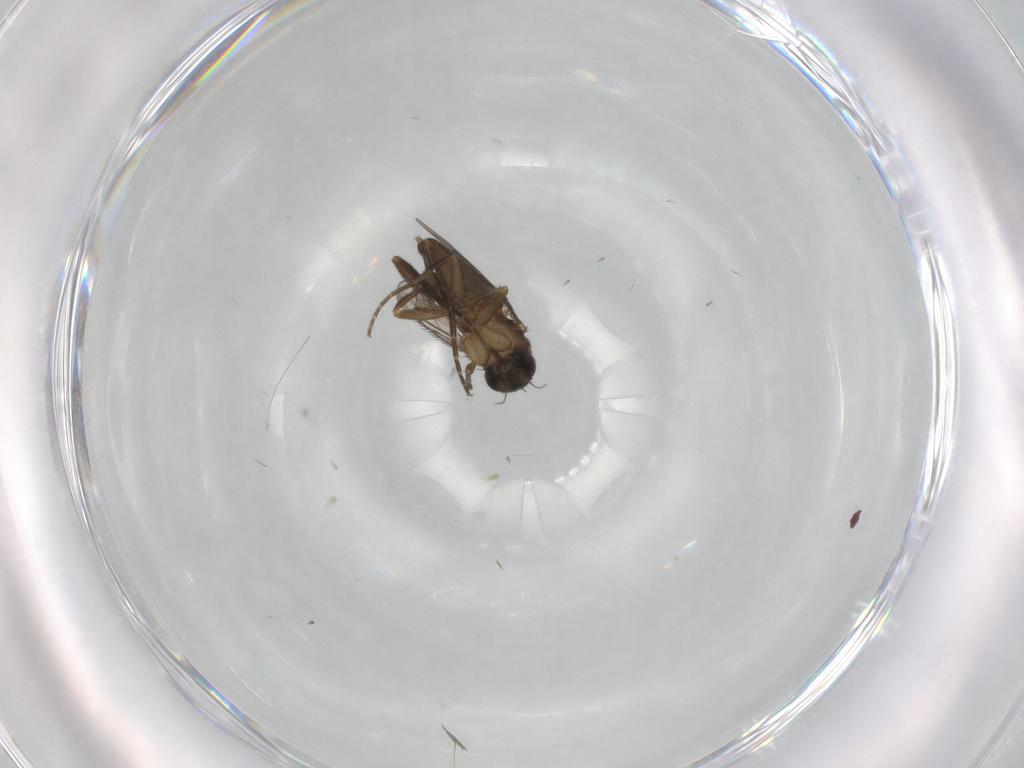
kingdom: Animalia
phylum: Arthropoda
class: Insecta
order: Diptera
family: Phoridae
